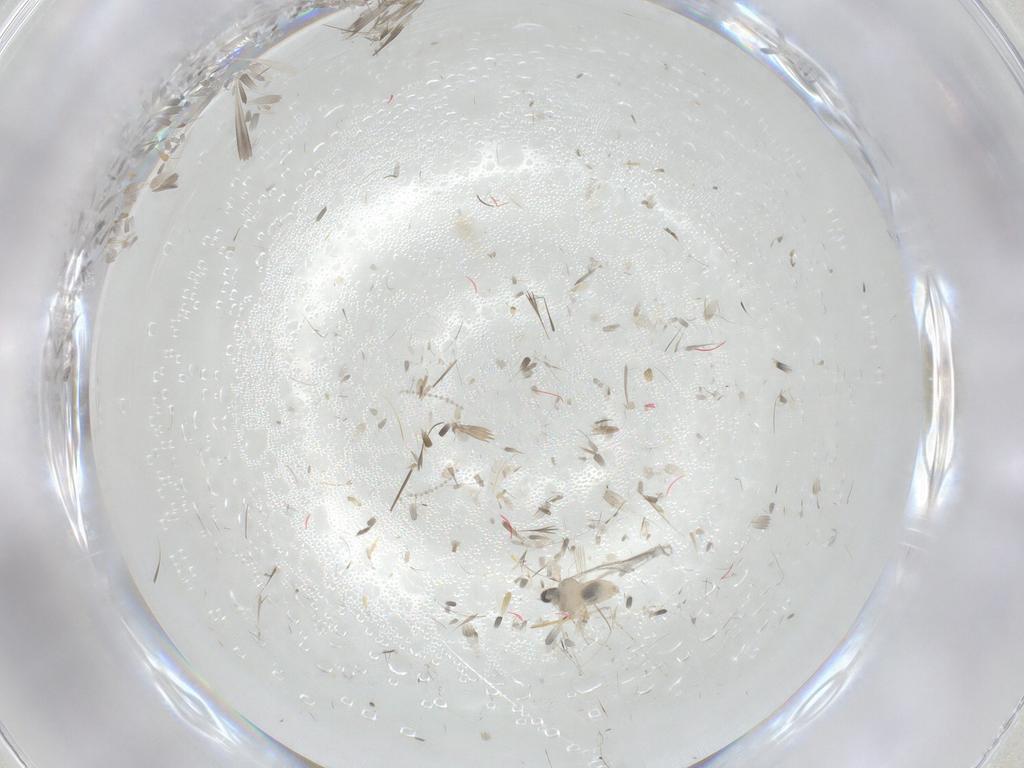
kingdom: Animalia
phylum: Arthropoda
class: Insecta
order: Diptera
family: Cecidomyiidae
